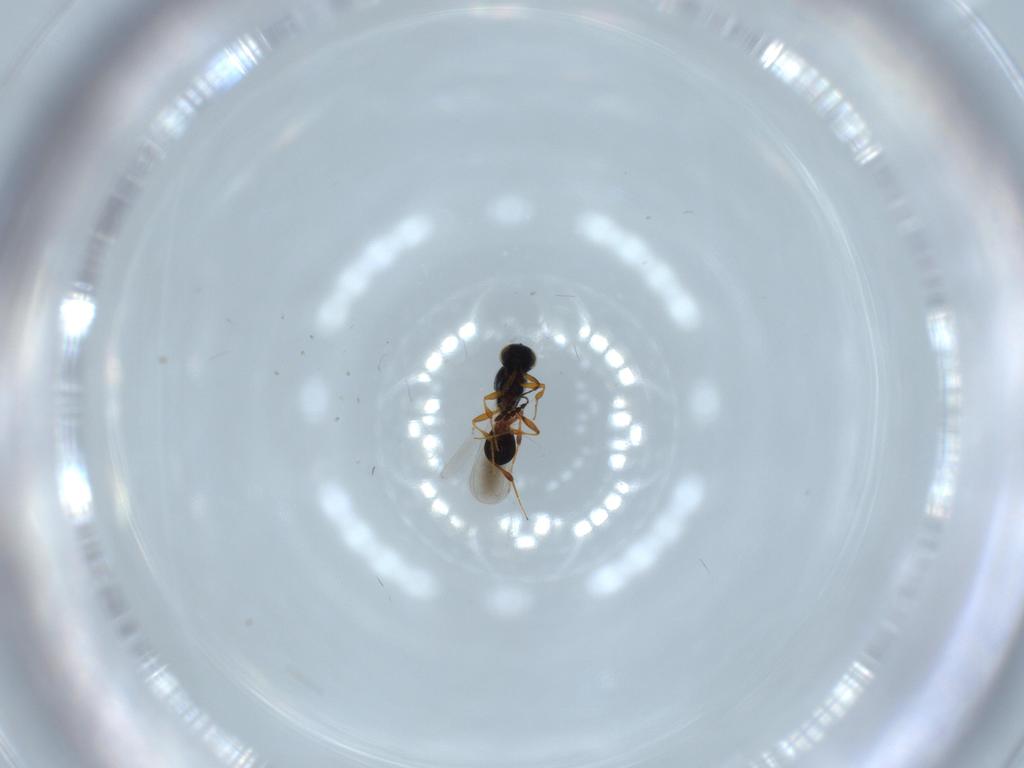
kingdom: Animalia
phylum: Arthropoda
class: Insecta
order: Hymenoptera
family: Platygastridae
